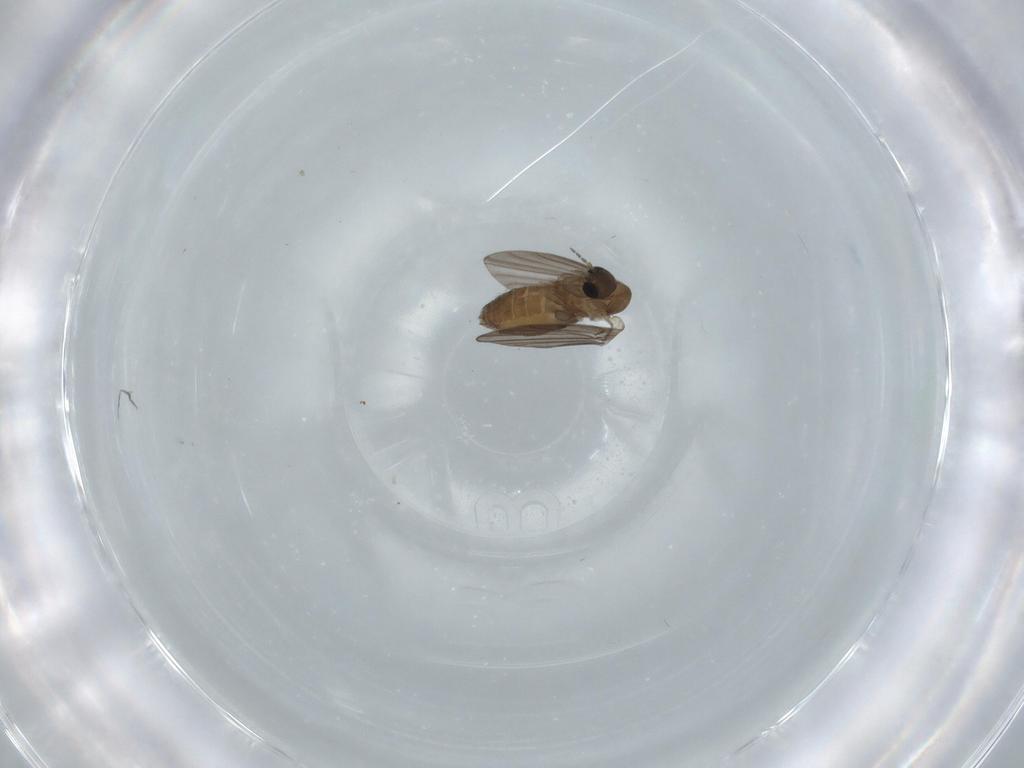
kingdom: Animalia
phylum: Arthropoda
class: Insecta
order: Diptera
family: Psychodidae
